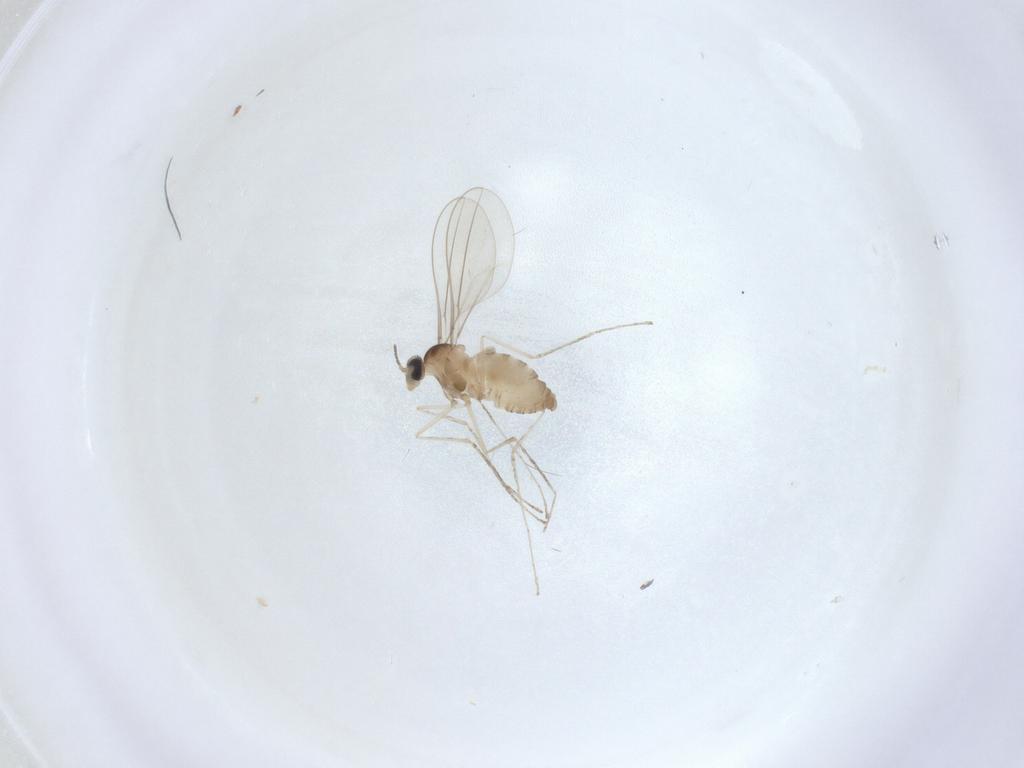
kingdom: Animalia
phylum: Arthropoda
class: Insecta
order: Diptera
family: Cecidomyiidae
